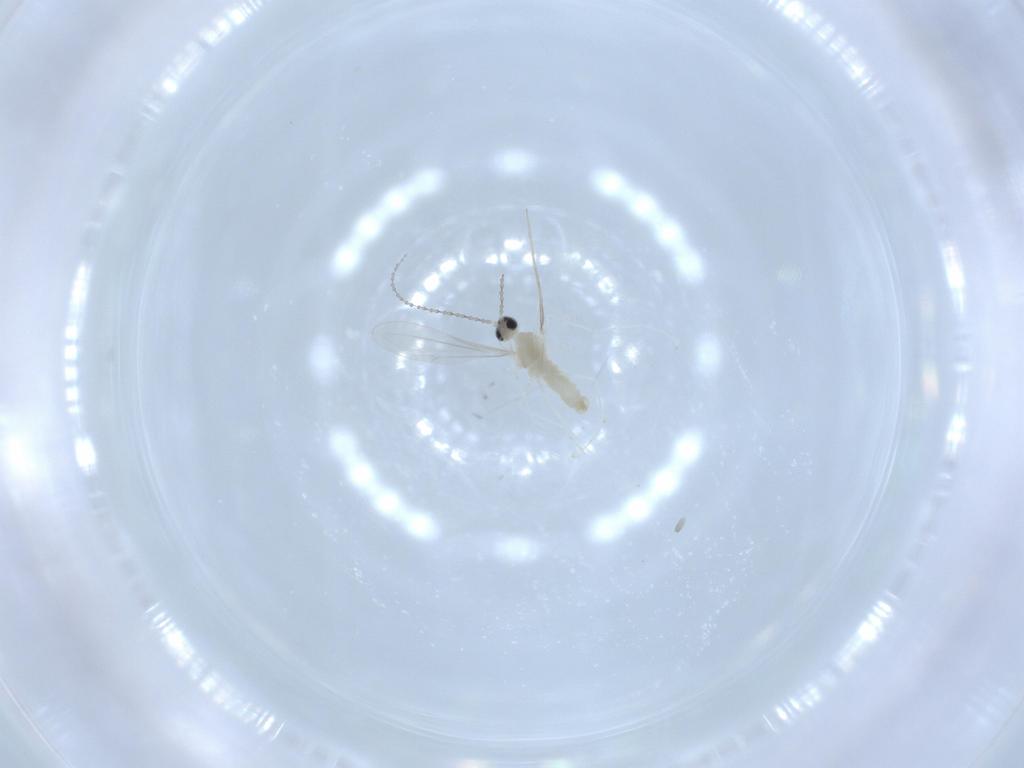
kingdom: Animalia
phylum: Arthropoda
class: Insecta
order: Diptera
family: Cecidomyiidae
